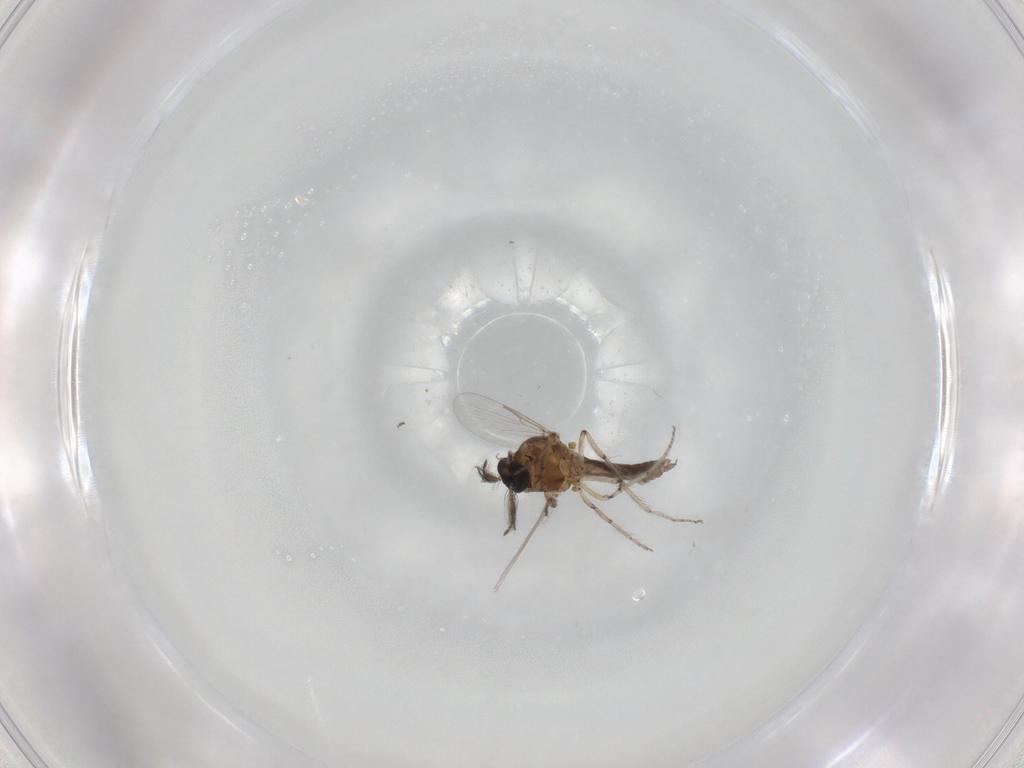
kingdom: Animalia
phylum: Arthropoda
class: Insecta
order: Diptera
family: Ceratopogonidae
